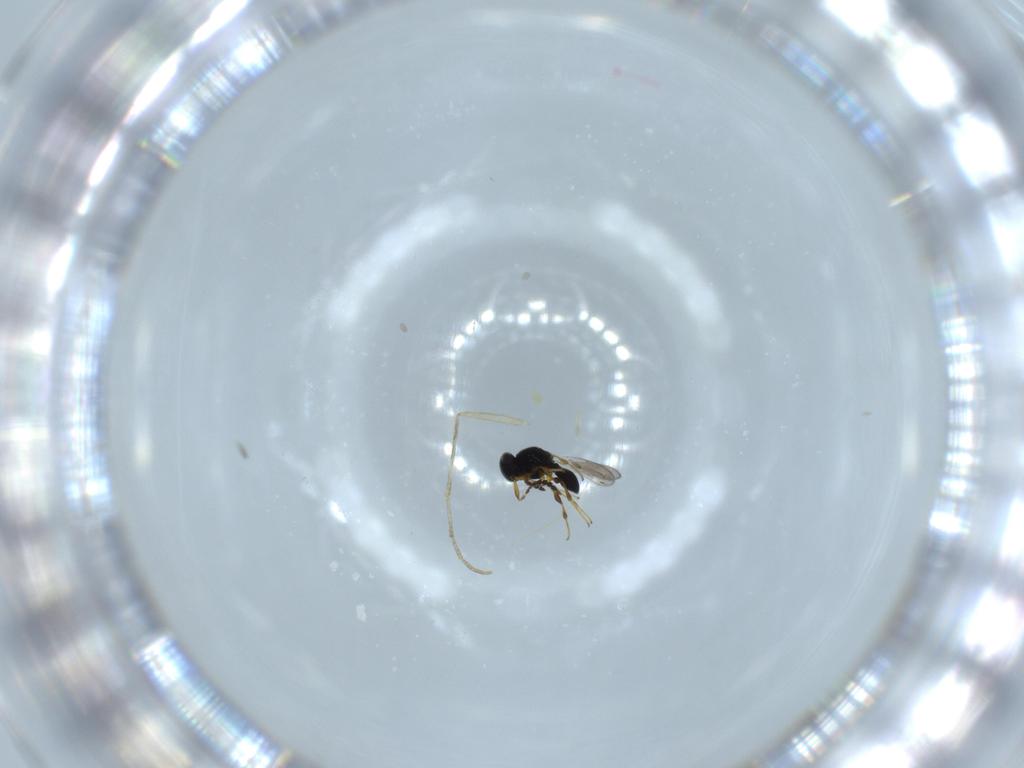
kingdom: Animalia
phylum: Arthropoda
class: Insecta
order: Hymenoptera
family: Platygastridae
